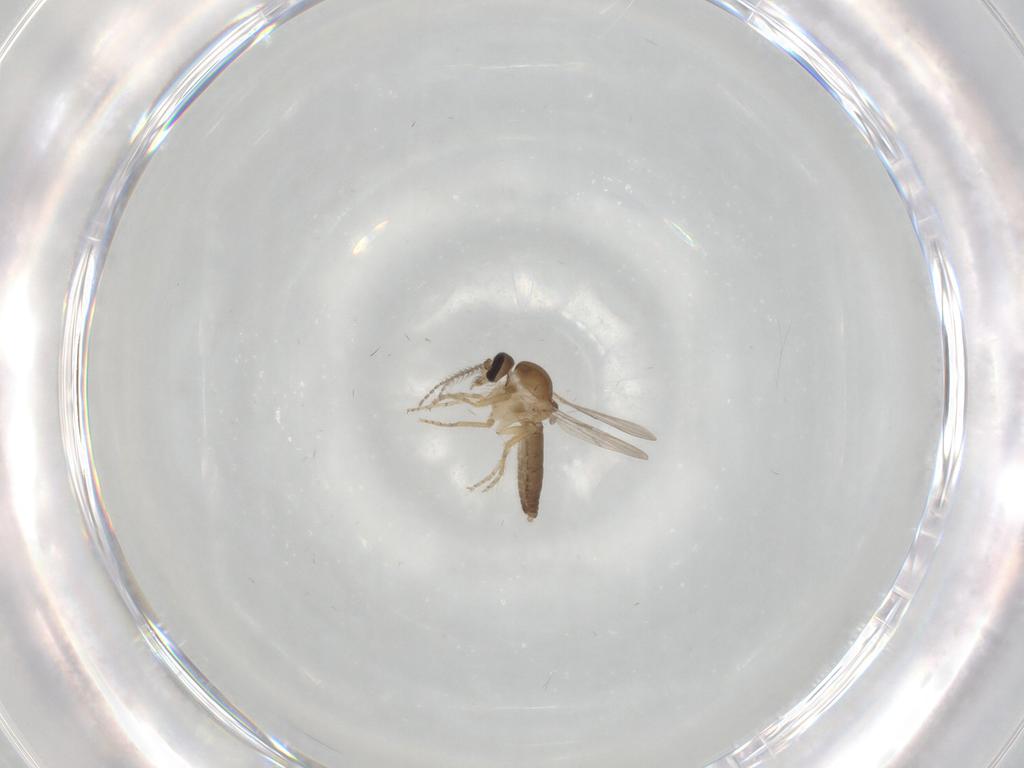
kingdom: Animalia
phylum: Arthropoda
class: Insecta
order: Diptera
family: Ceratopogonidae
